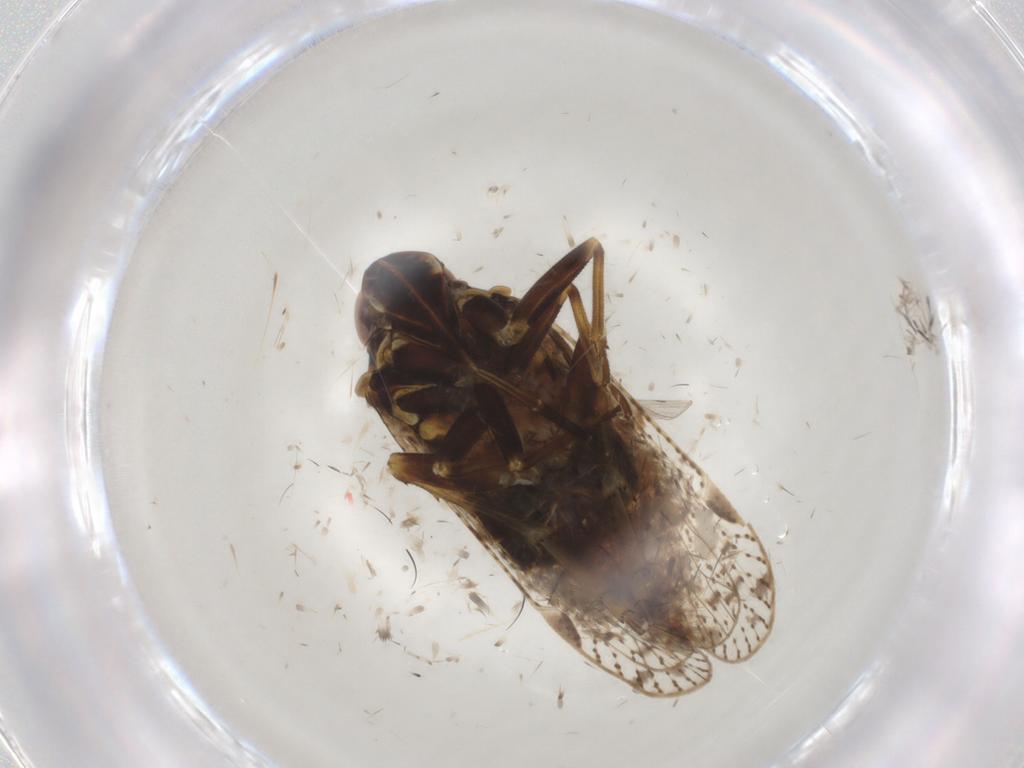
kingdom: Animalia
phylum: Arthropoda
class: Insecta
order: Hemiptera
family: Cixiidae
